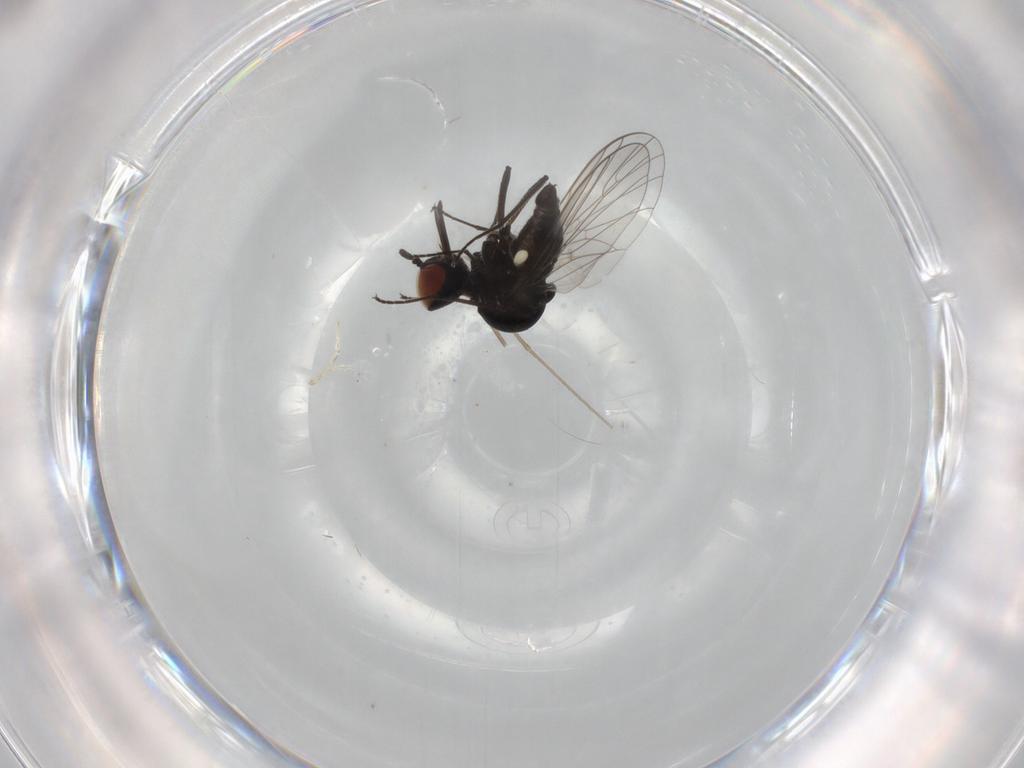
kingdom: Animalia
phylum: Arthropoda
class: Insecta
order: Diptera
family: Bombyliidae
